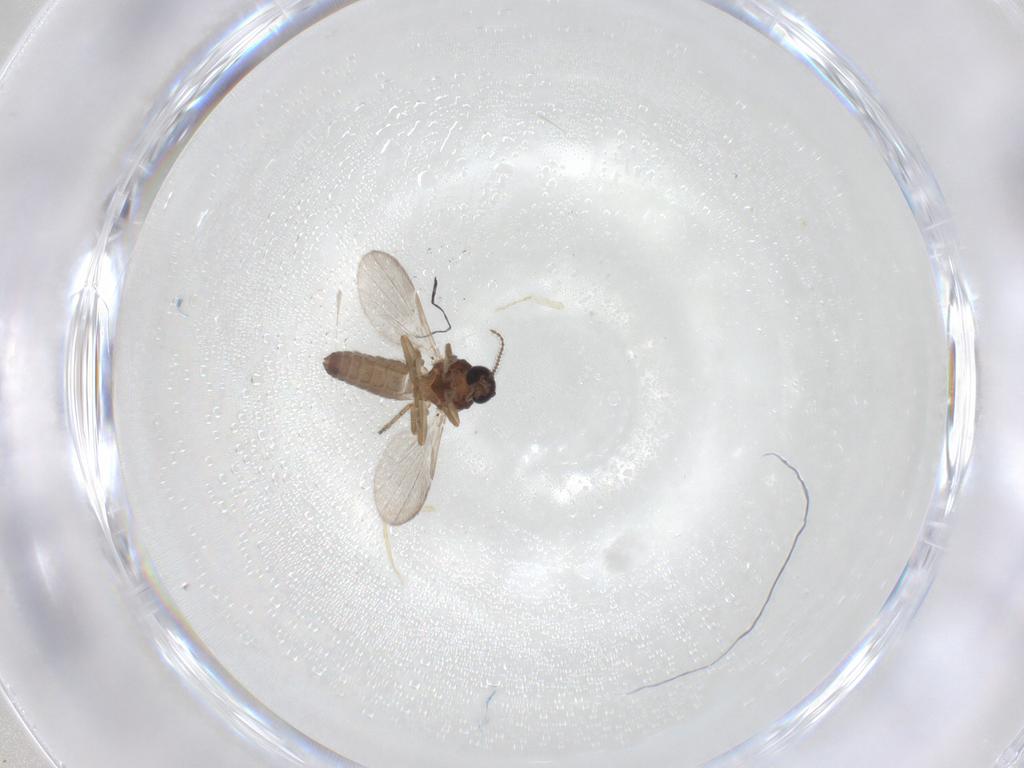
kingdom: Animalia
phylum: Arthropoda
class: Insecta
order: Diptera
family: Ceratopogonidae
